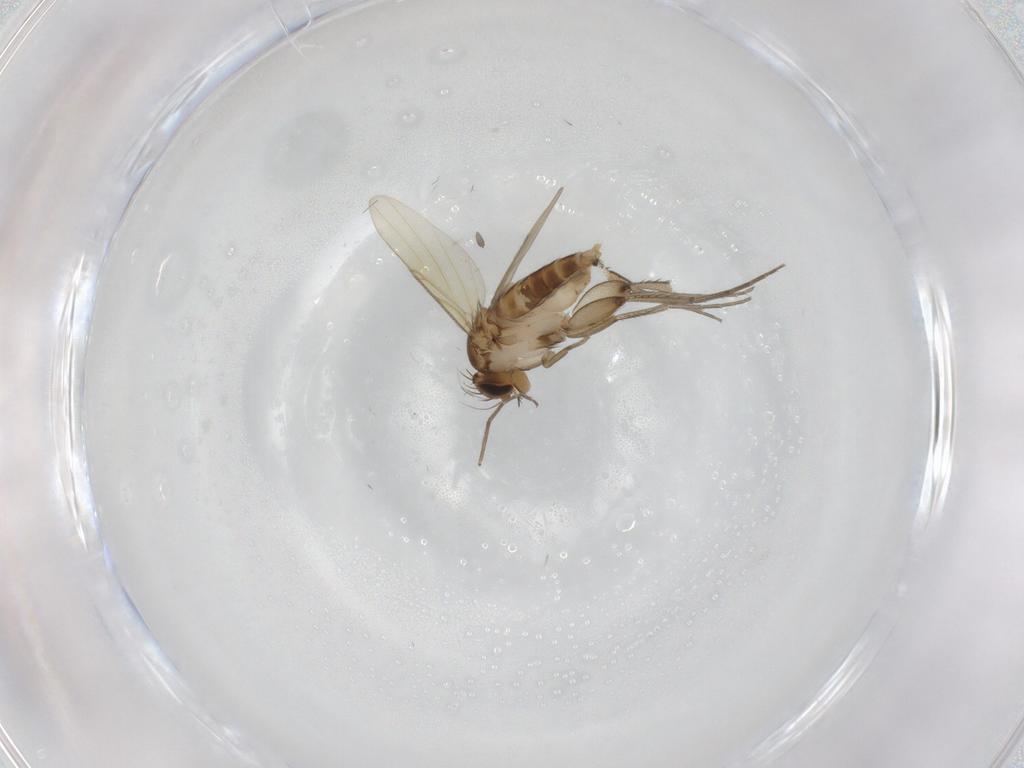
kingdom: Animalia
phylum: Arthropoda
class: Insecta
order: Diptera
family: Phoridae
